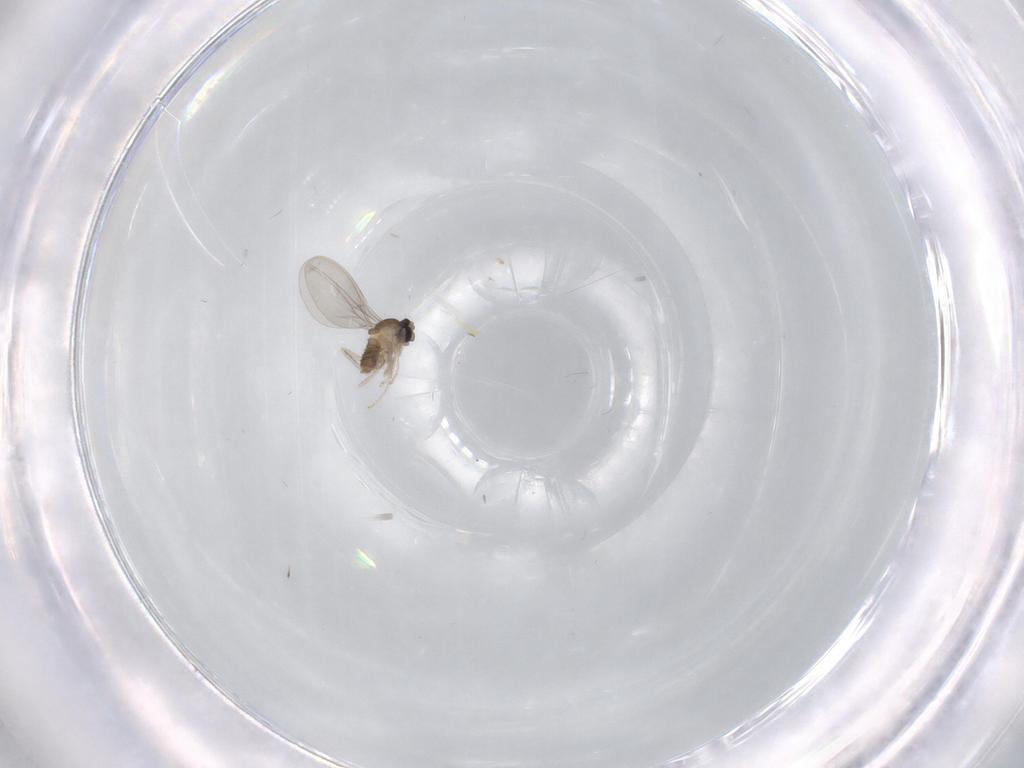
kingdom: Animalia
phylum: Arthropoda
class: Insecta
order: Diptera
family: Cecidomyiidae
